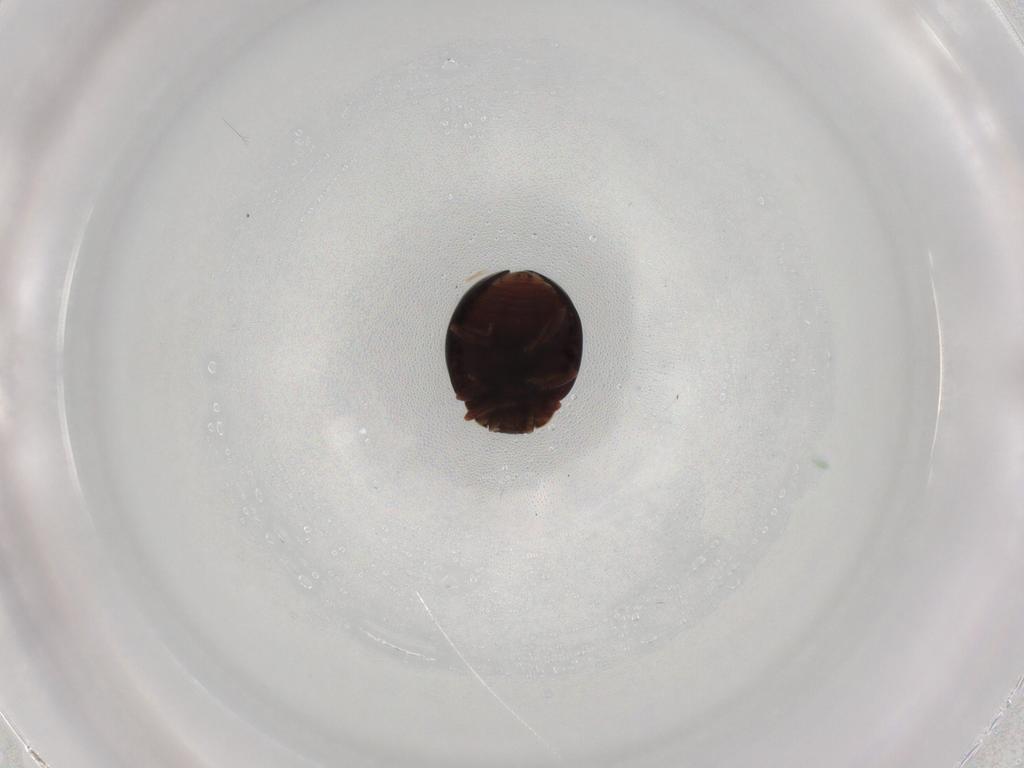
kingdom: Animalia
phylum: Arthropoda
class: Insecta
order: Coleoptera
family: Coccinellidae
